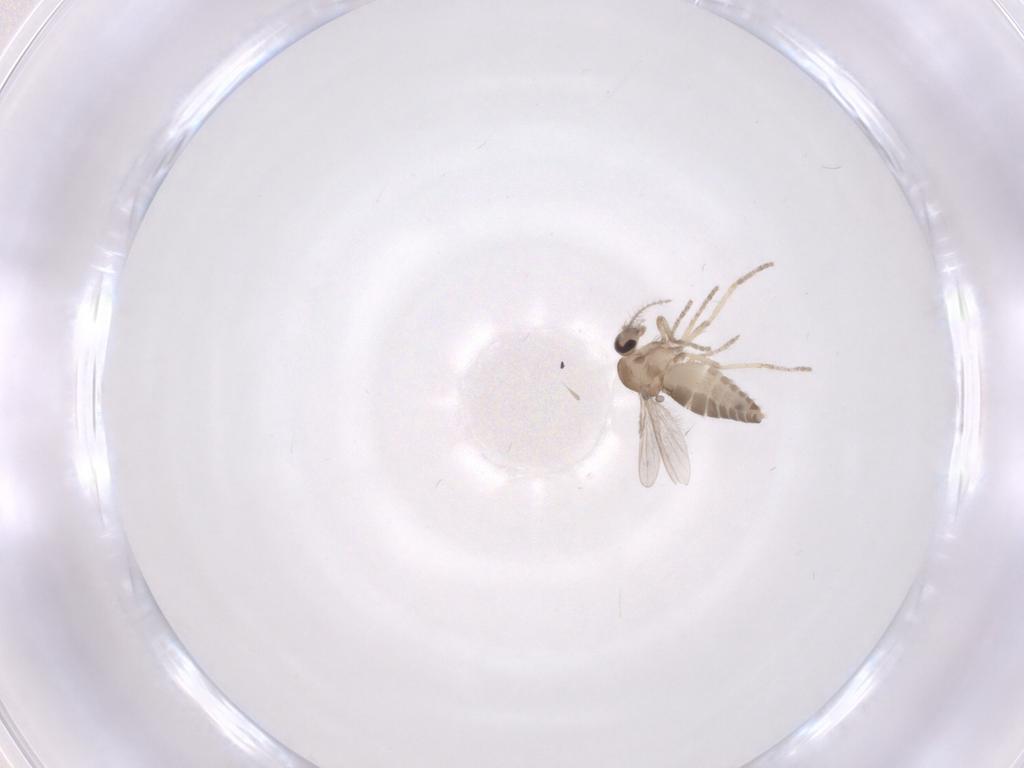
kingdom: Animalia
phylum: Arthropoda
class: Insecta
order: Diptera
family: Ceratopogonidae
